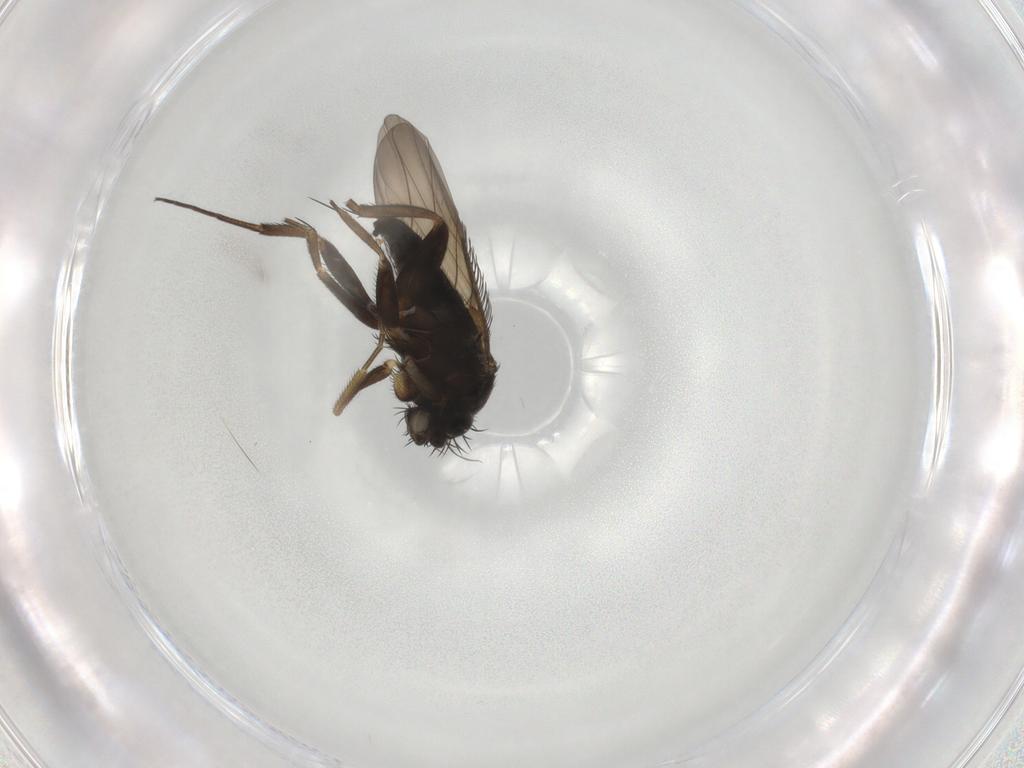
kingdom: Animalia
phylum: Arthropoda
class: Insecta
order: Diptera
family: Phoridae
